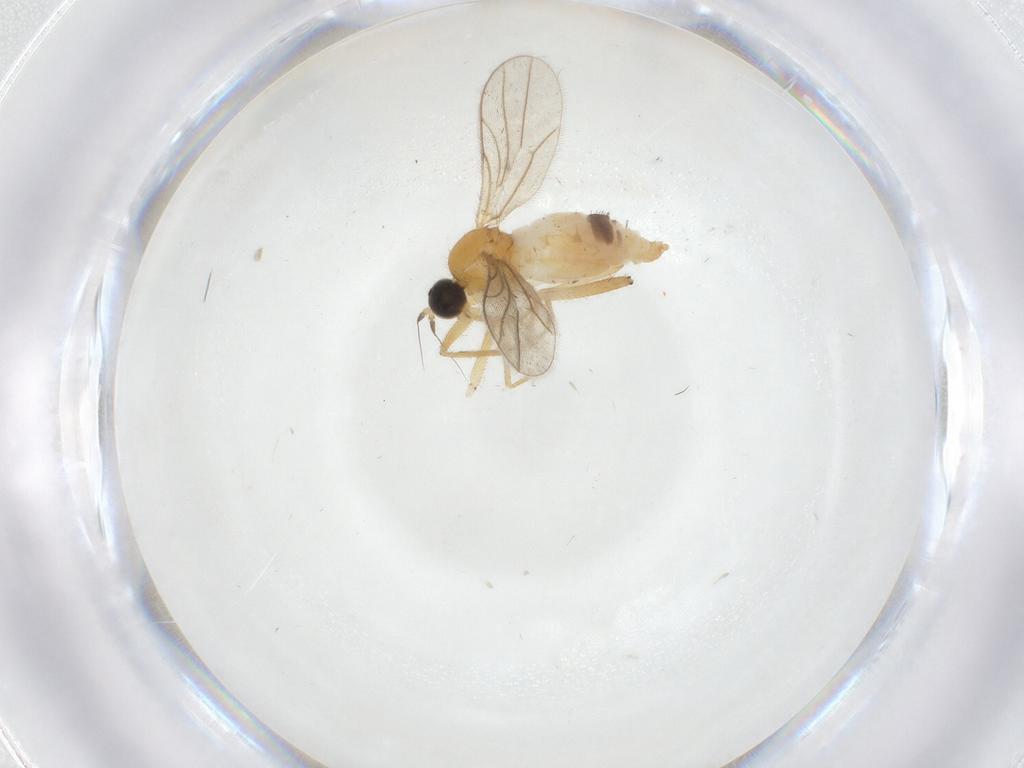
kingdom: Animalia
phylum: Arthropoda
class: Insecta
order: Diptera
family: Hybotidae
